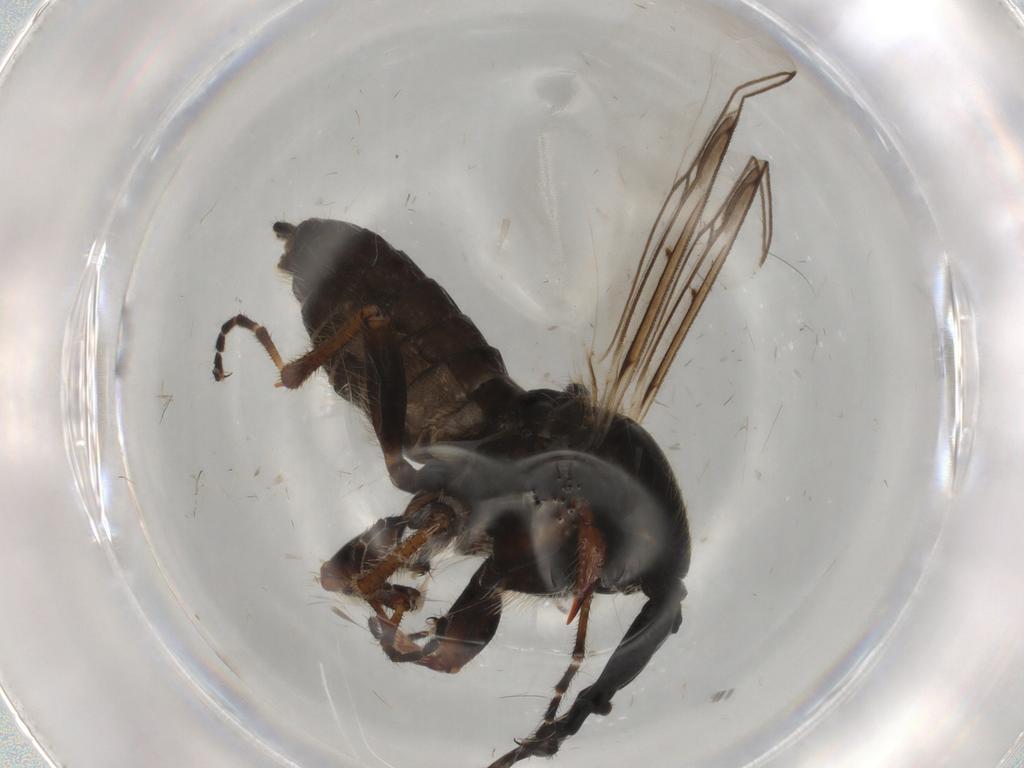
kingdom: Animalia
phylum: Arthropoda
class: Insecta
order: Diptera
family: Bibionidae
